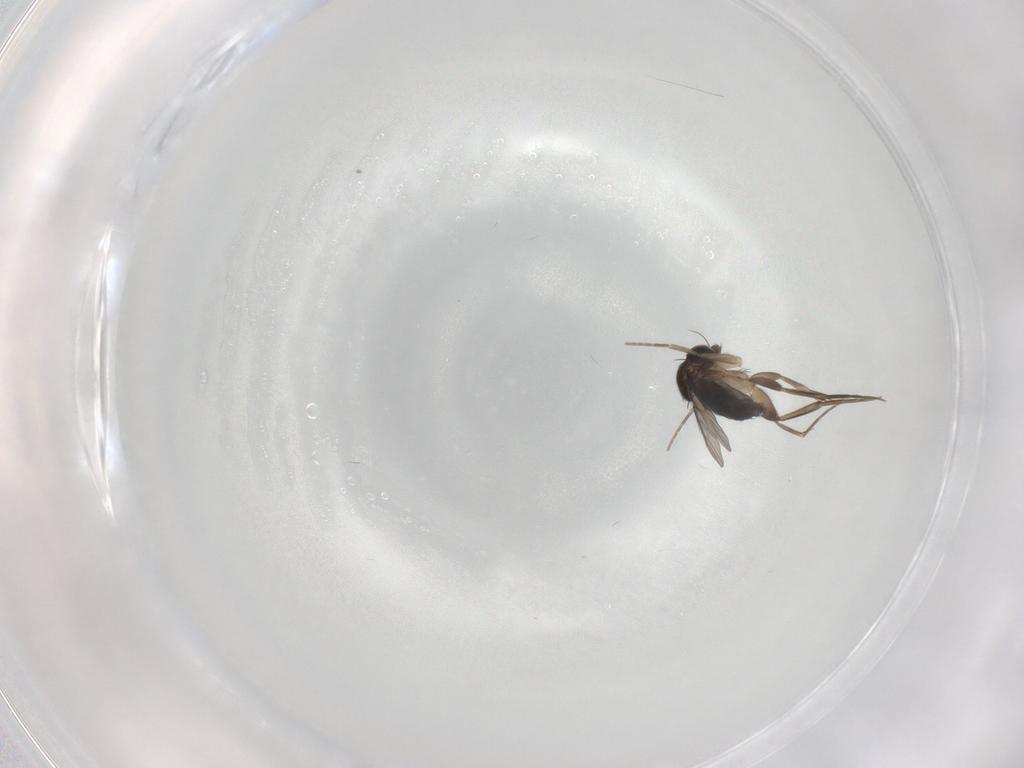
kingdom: Animalia
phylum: Arthropoda
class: Insecta
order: Diptera
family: Phoridae
